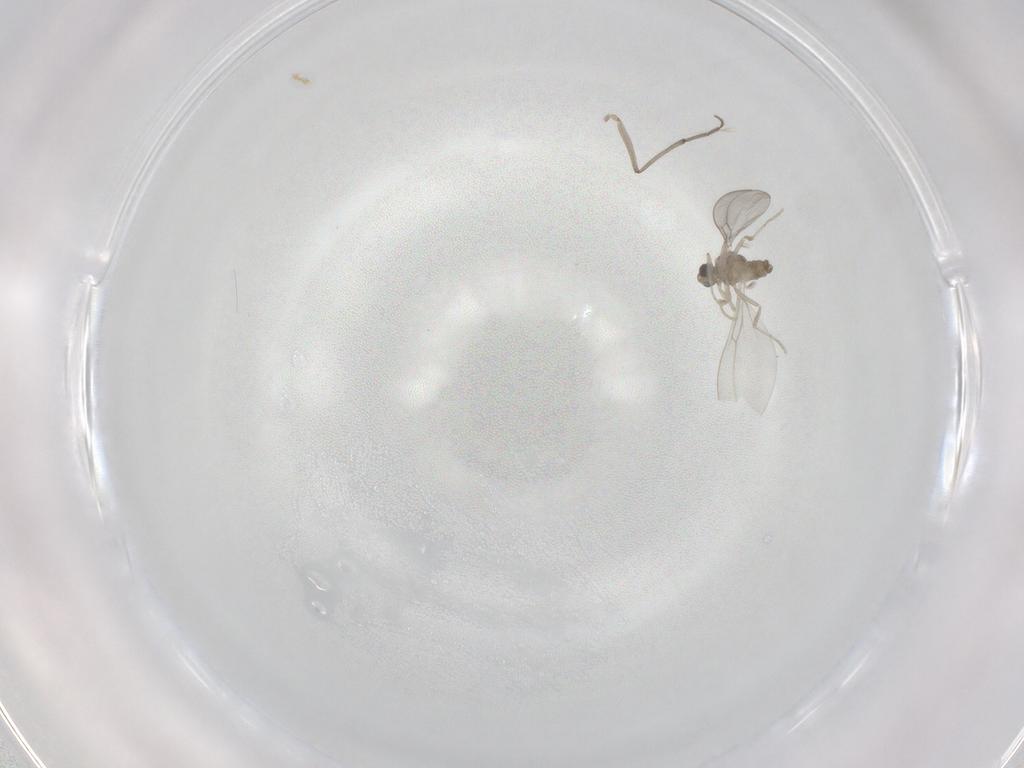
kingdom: Animalia
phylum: Arthropoda
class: Insecta
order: Diptera
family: Cecidomyiidae
